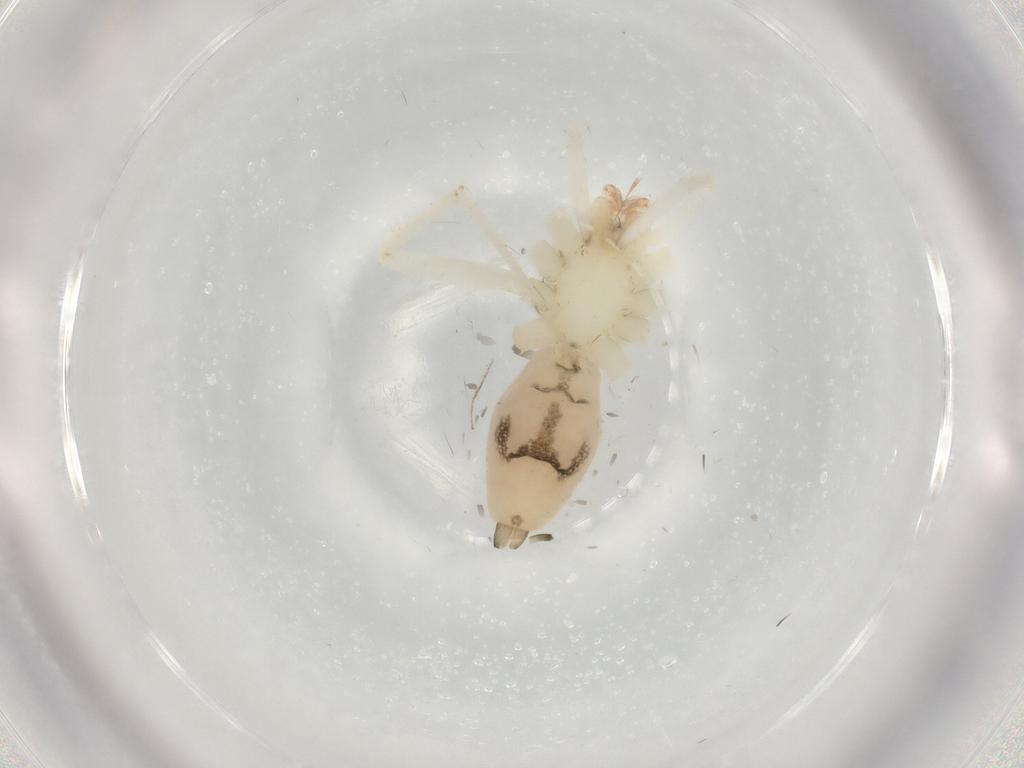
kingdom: Animalia
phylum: Arthropoda
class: Arachnida
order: Araneae
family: Anyphaenidae
